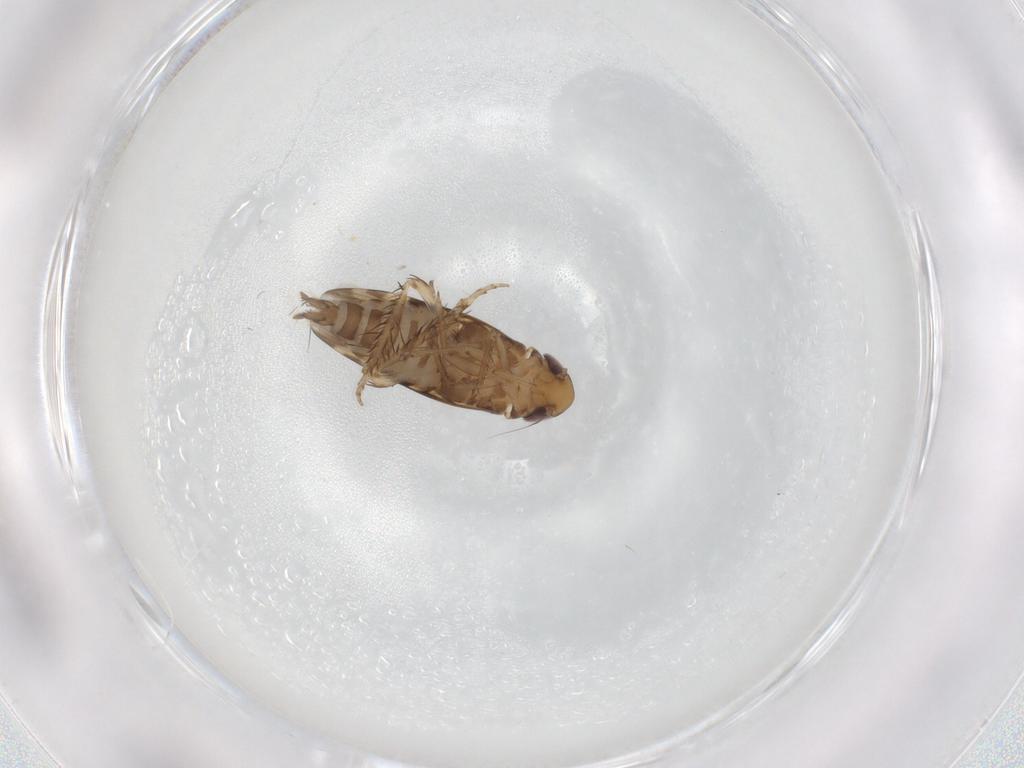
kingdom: Animalia
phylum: Arthropoda
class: Insecta
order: Hemiptera
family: Cicadellidae
